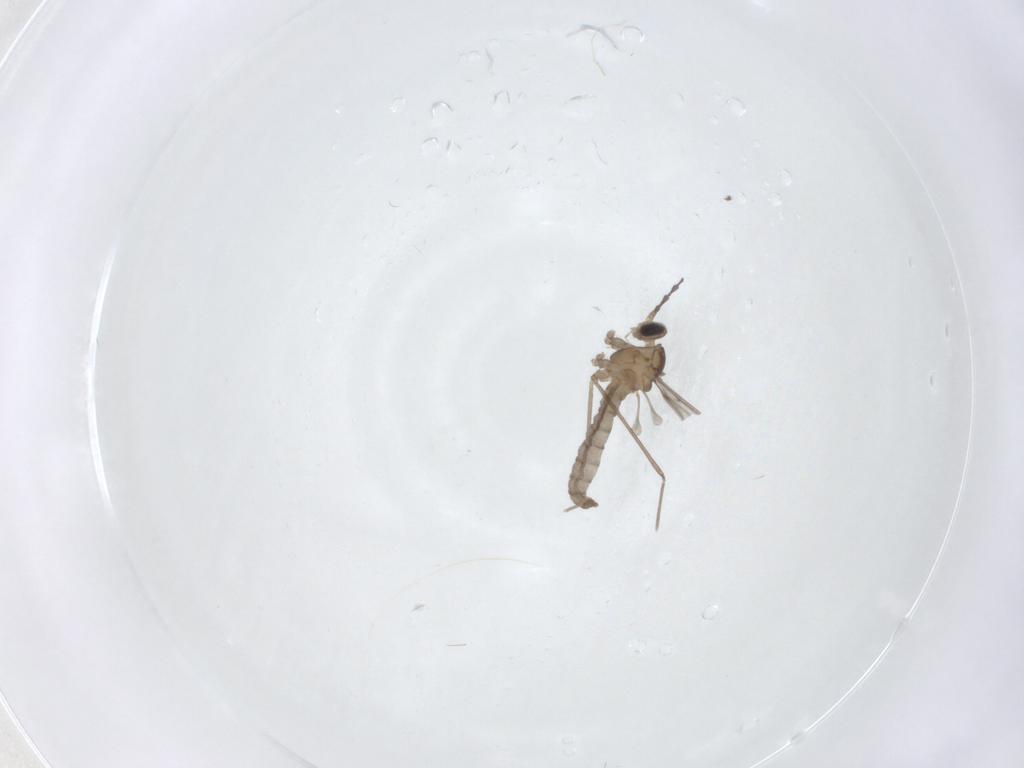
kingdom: Animalia
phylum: Arthropoda
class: Insecta
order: Diptera
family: Cecidomyiidae
